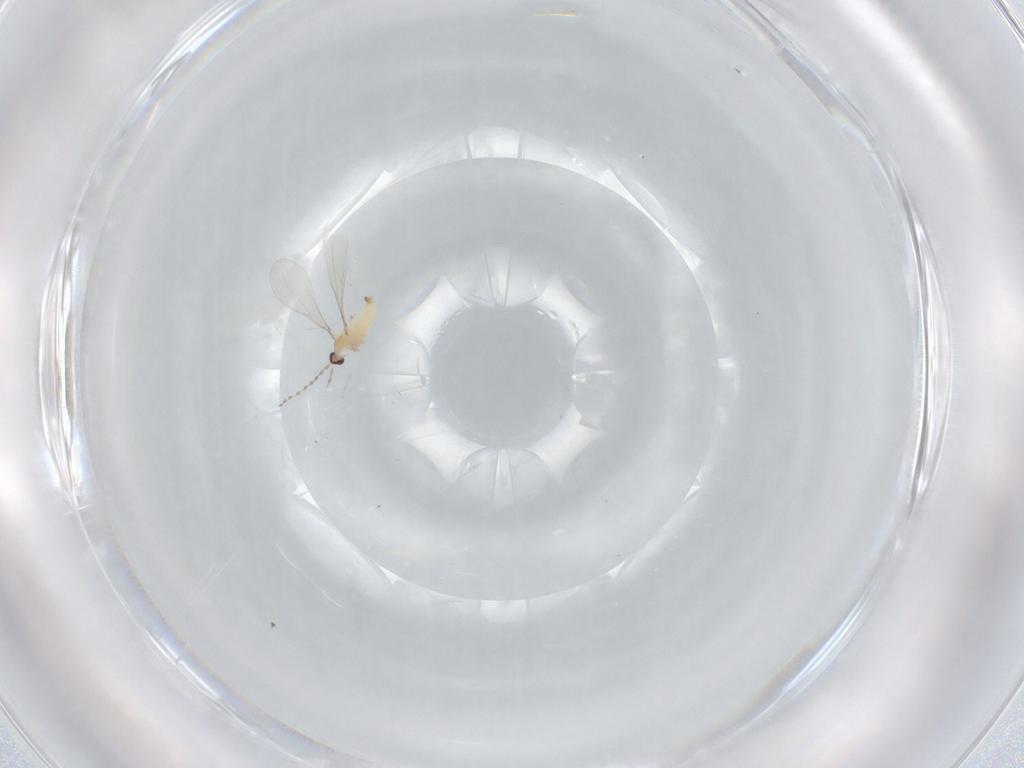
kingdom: Animalia
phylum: Arthropoda
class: Insecta
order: Diptera
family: Cecidomyiidae
